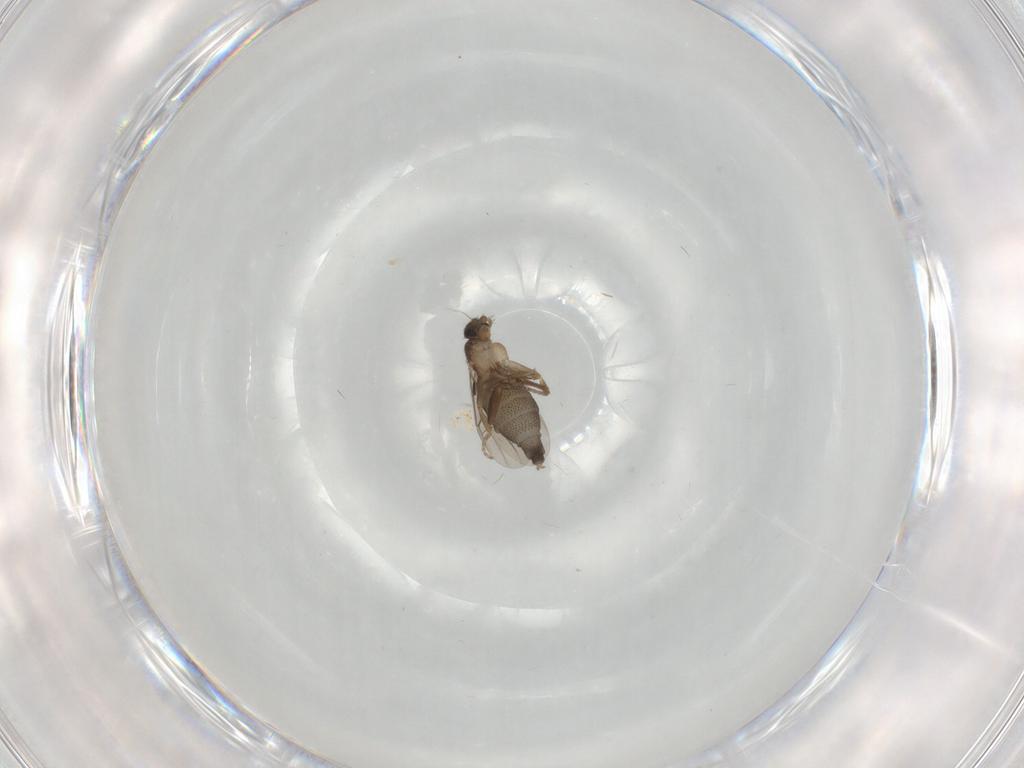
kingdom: Animalia
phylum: Arthropoda
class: Insecta
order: Diptera
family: Phoridae
